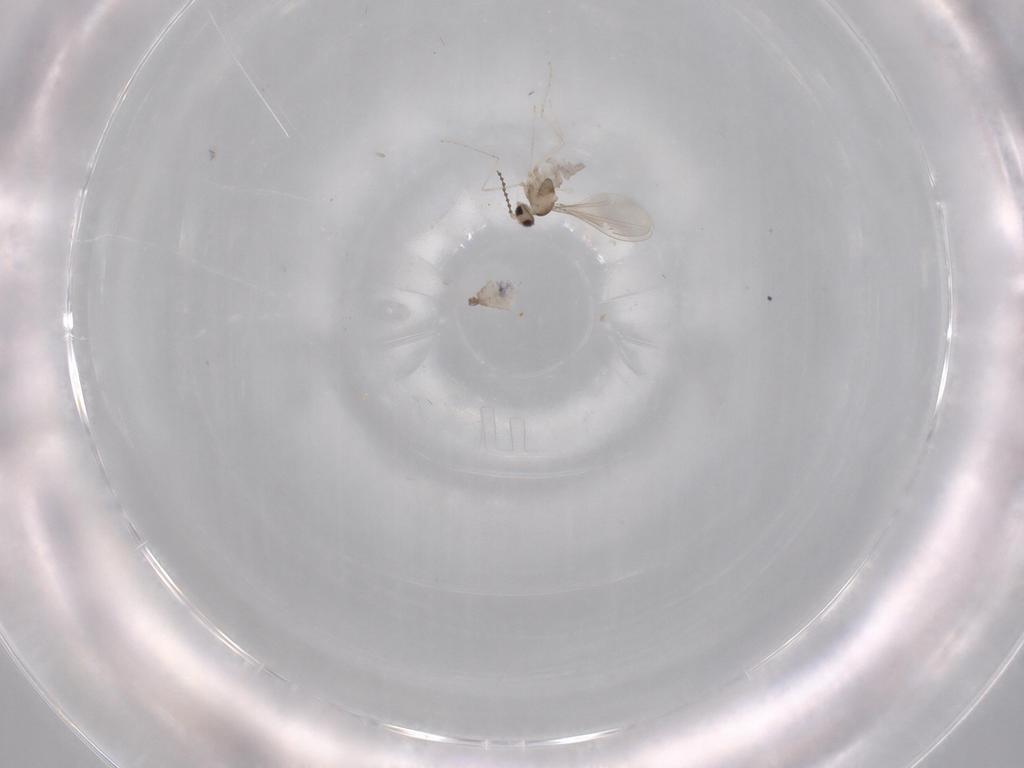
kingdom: Animalia
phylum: Arthropoda
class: Insecta
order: Diptera
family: Cecidomyiidae
